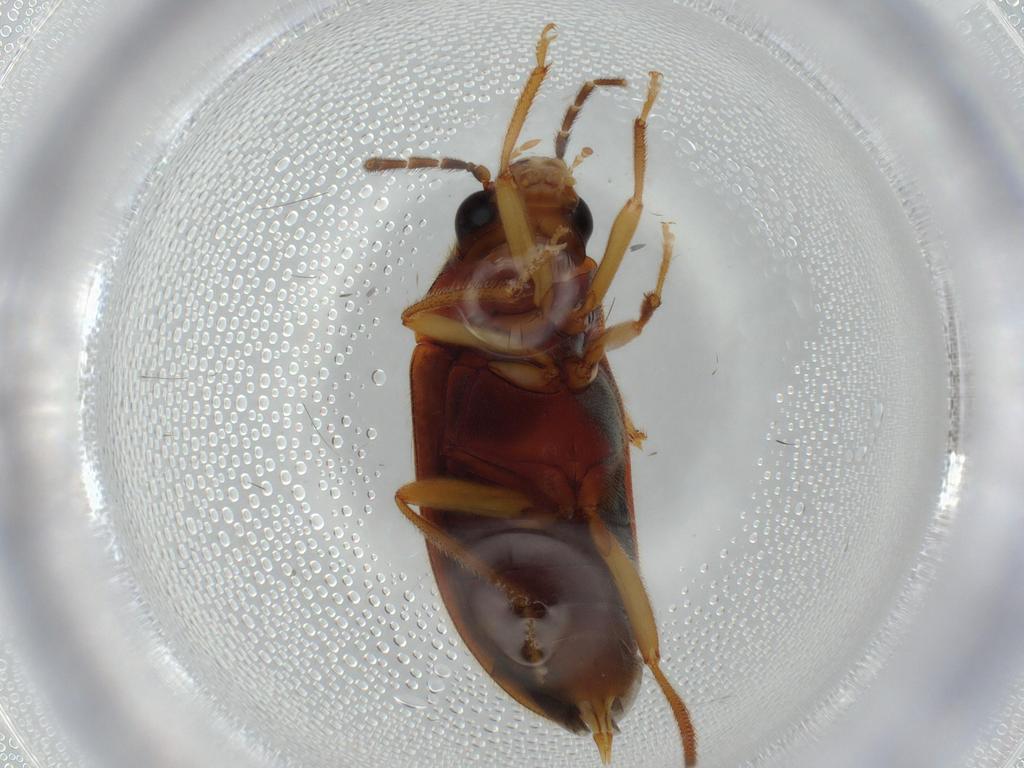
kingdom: Animalia
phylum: Arthropoda
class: Insecta
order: Coleoptera
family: Ptilodactylidae
